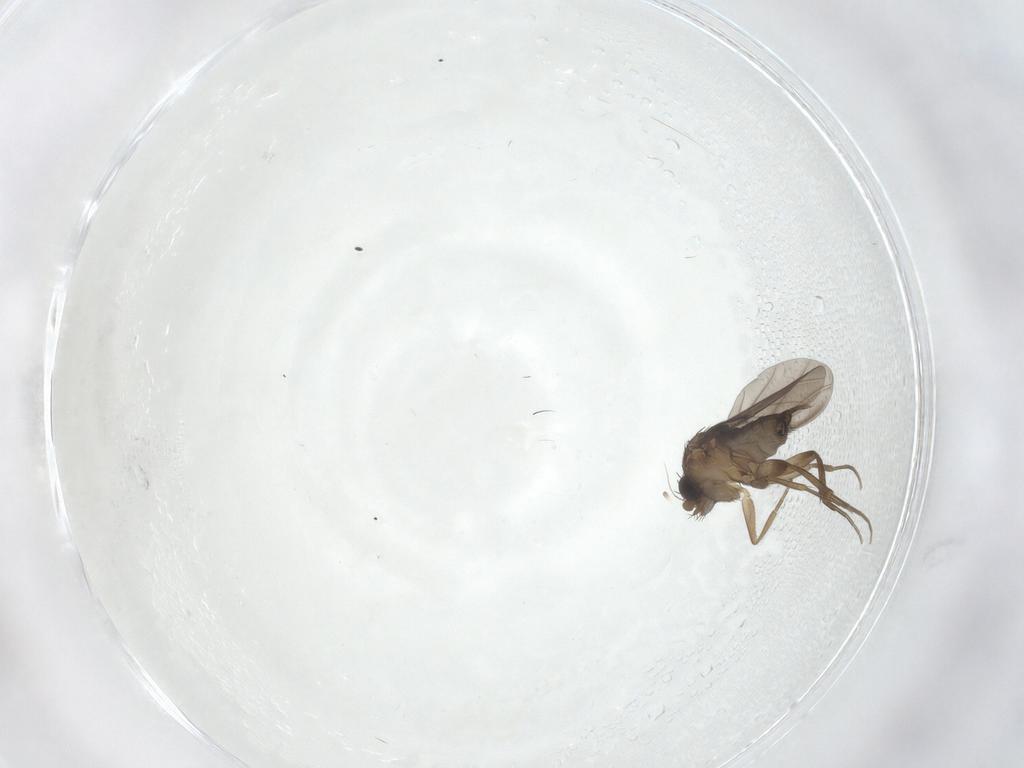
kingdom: Animalia
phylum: Arthropoda
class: Insecta
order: Diptera
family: Phoridae
